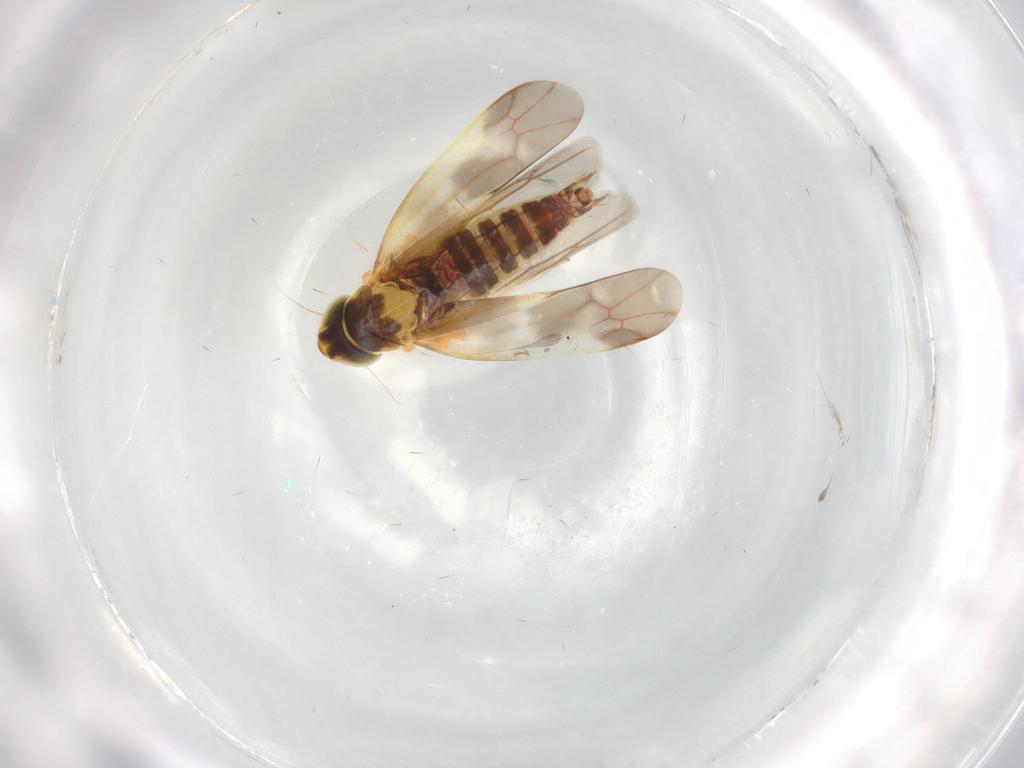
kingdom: Animalia
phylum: Arthropoda
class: Insecta
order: Hemiptera
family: Cicadellidae
